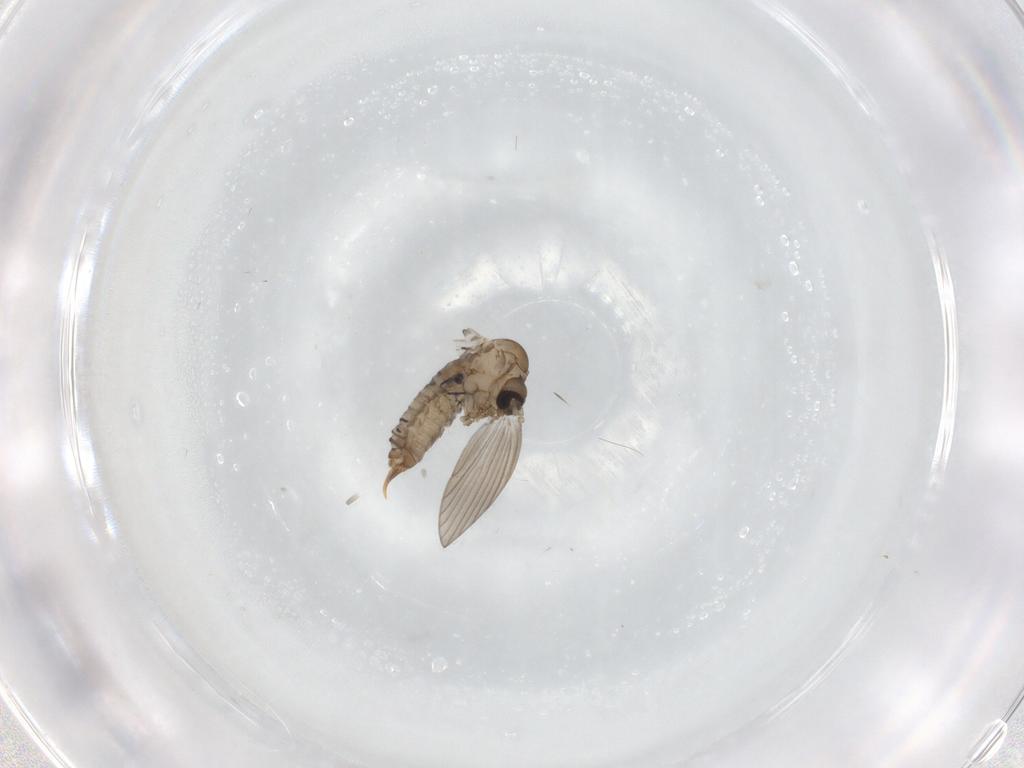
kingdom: Animalia
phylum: Arthropoda
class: Insecta
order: Diptera
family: Psychodidae
